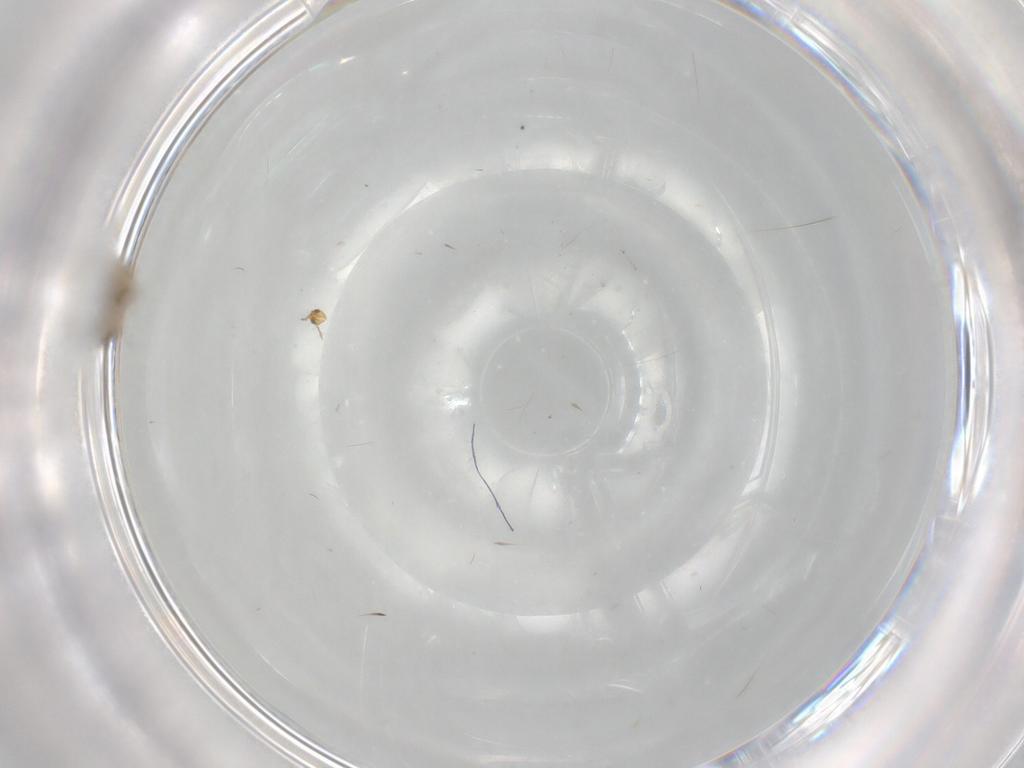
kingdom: Animalia
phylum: Arthropoda
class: Insecta
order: Hymenoptera
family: Aphelinidae
